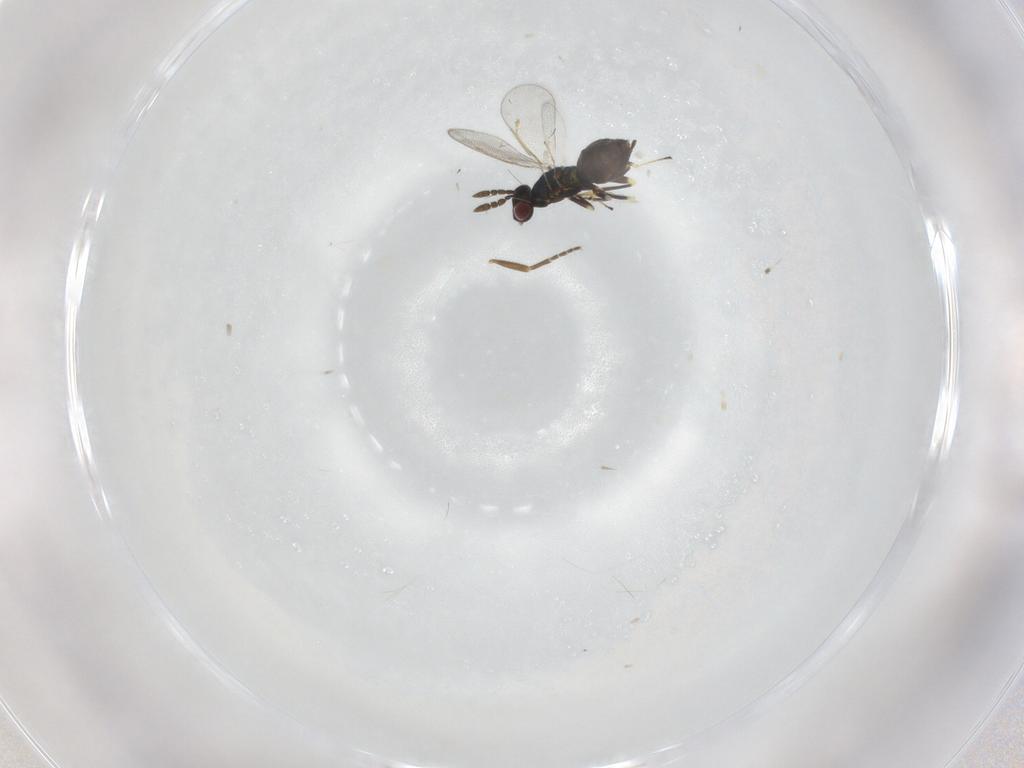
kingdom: Animalia
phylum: Arthropoda
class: Insecta
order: Hymenoptera
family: Eulophidae
